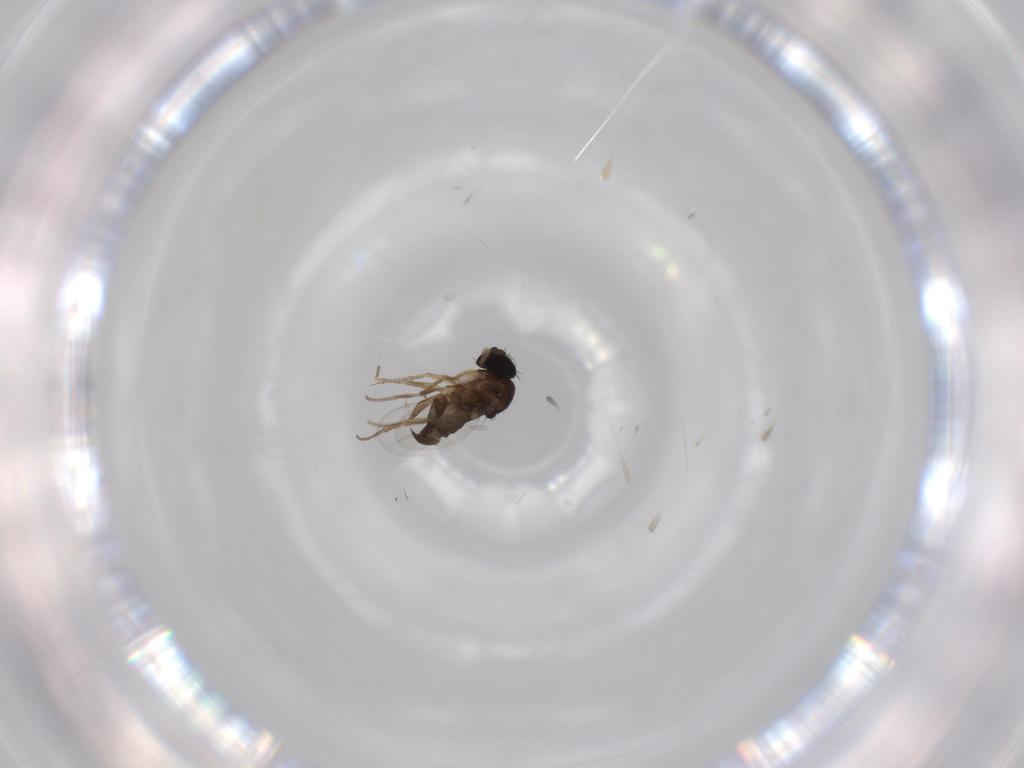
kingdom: Animalia
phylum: Arthropoda
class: Insecta
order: Diptera
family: Phoridae
